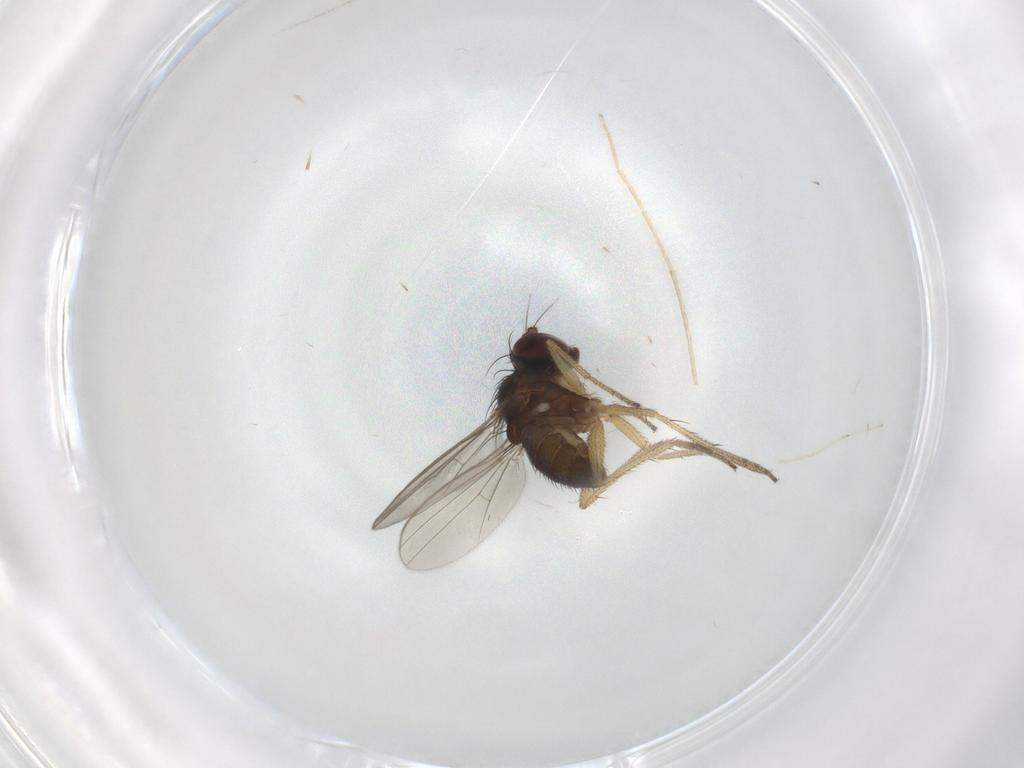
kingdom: Animalia
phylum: Arthropoda
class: Insecta
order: Diptera
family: Dolichopodidae
